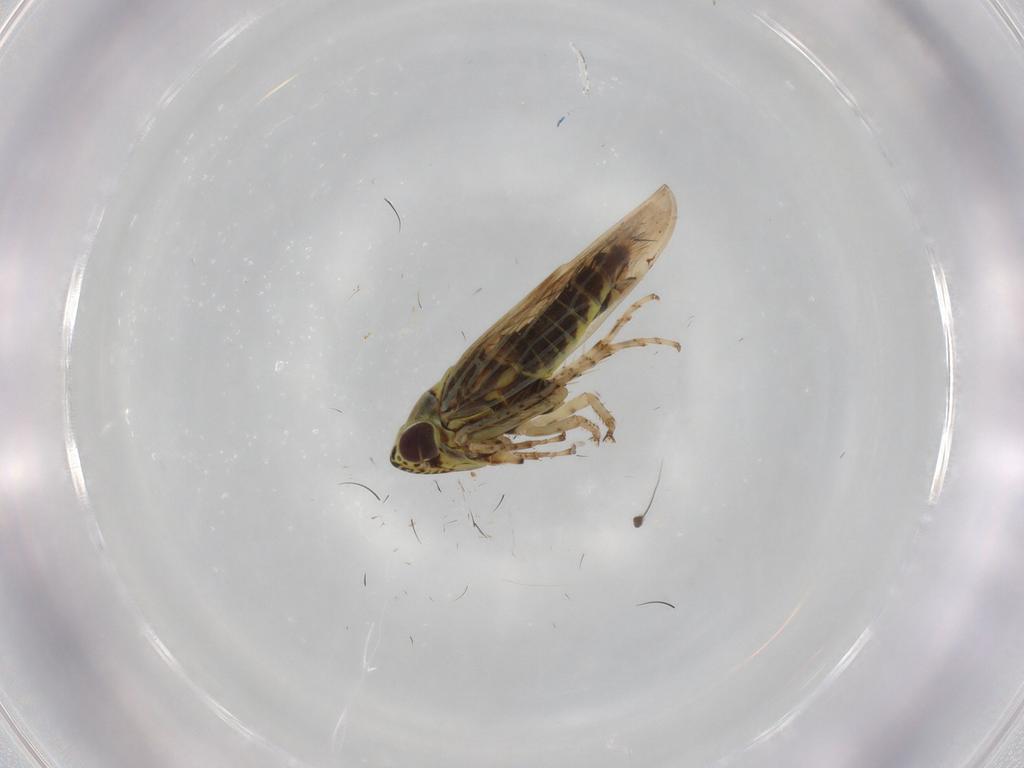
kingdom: Animalia
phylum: Arthropoda
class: Insecta
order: Hemiptera
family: Cicadellidae
